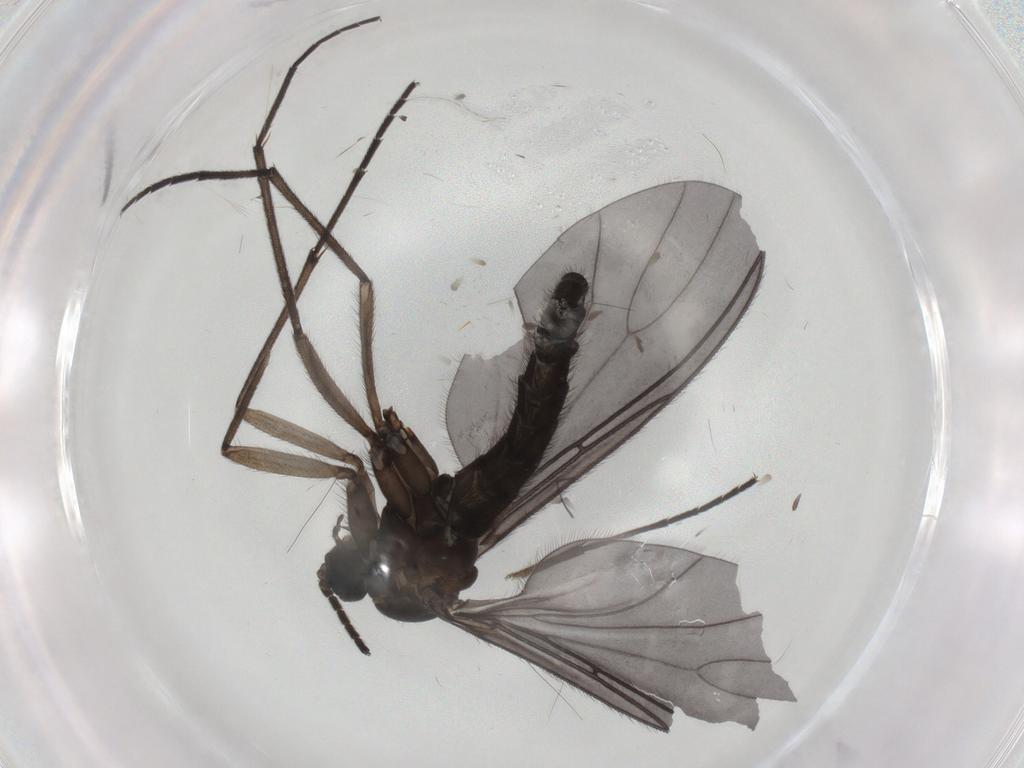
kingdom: Animalia
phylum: Arthropoda
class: Insecta
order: Diptera
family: Sciaridae
